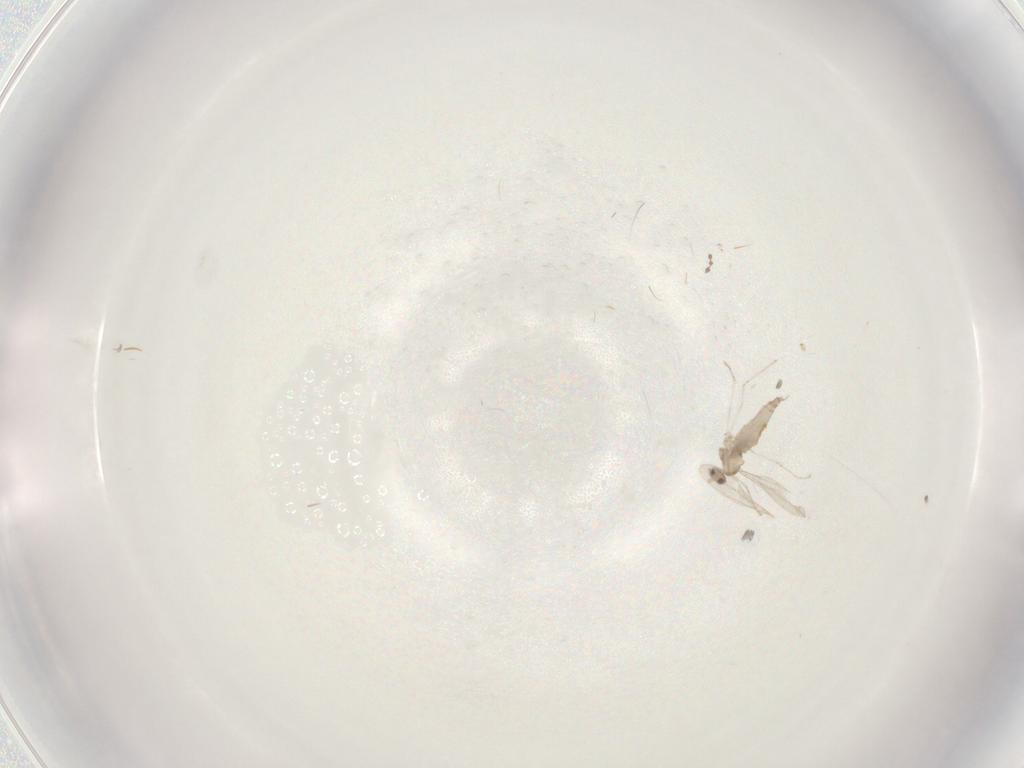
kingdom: Animalia
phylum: Arthropoda
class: Insecta
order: Diptera
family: Cecidomyiidae
